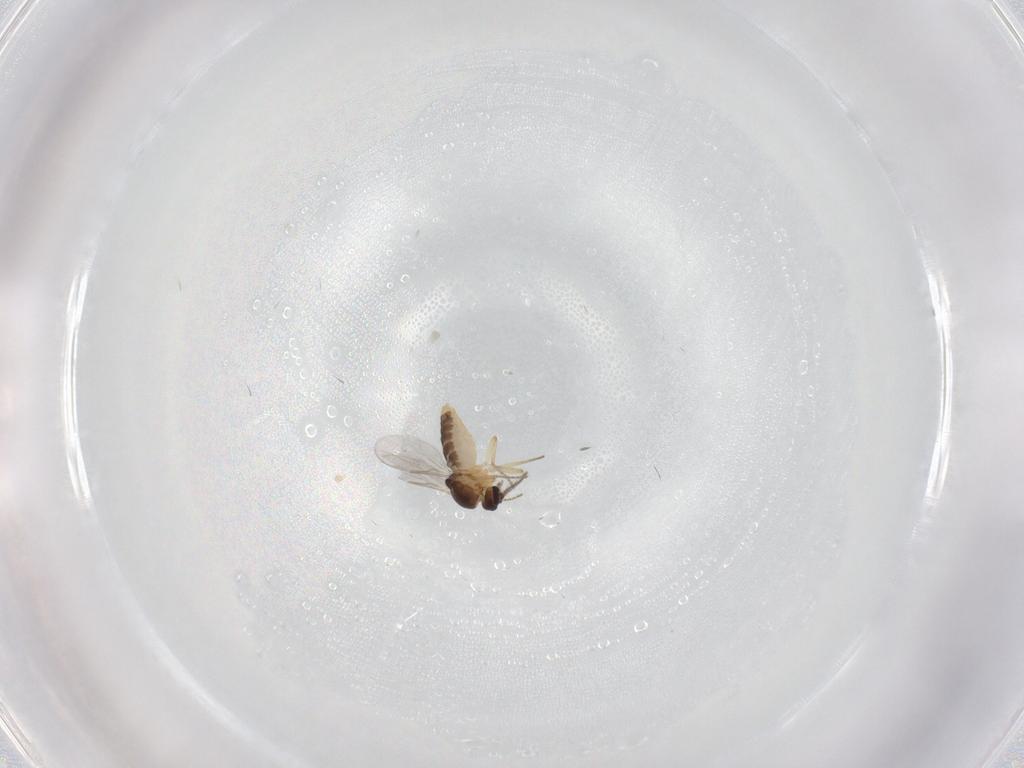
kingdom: Animalia
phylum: Arthropoda
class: Insecta
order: Diptera
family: Ceratopogonidae
